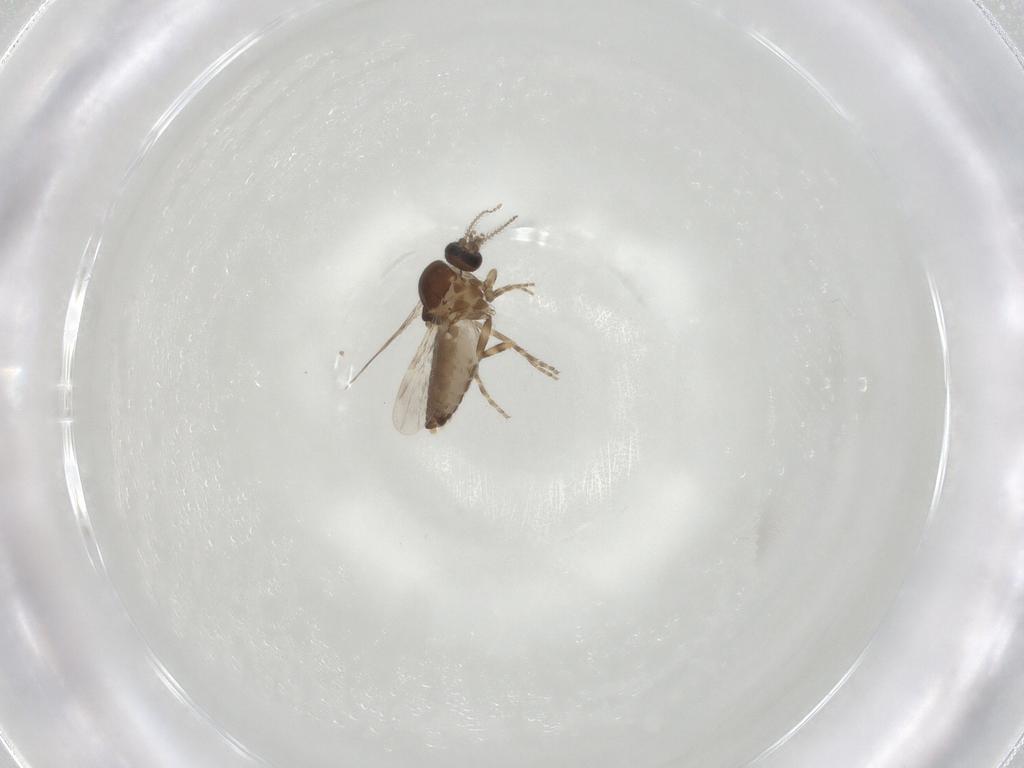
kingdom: Animalia
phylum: Arthropoda
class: Insecta
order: Diptera
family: Ceratopogonidae
